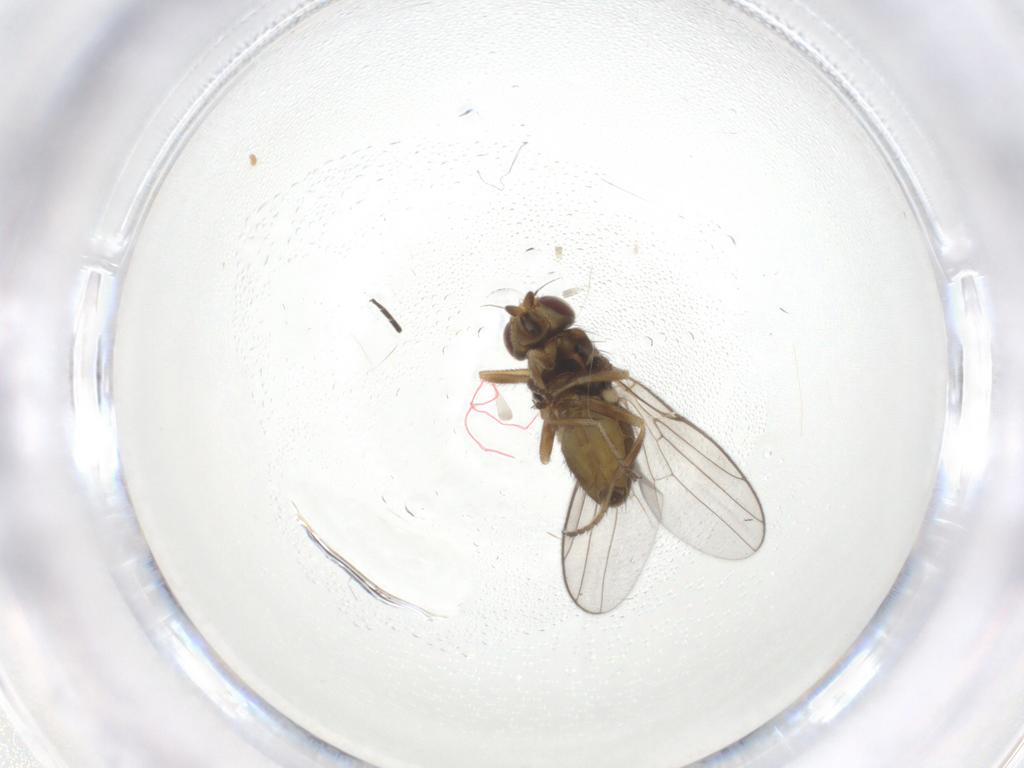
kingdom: Animalia
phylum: Arthropoda
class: Insecta
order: Diptera
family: Chloropidae
